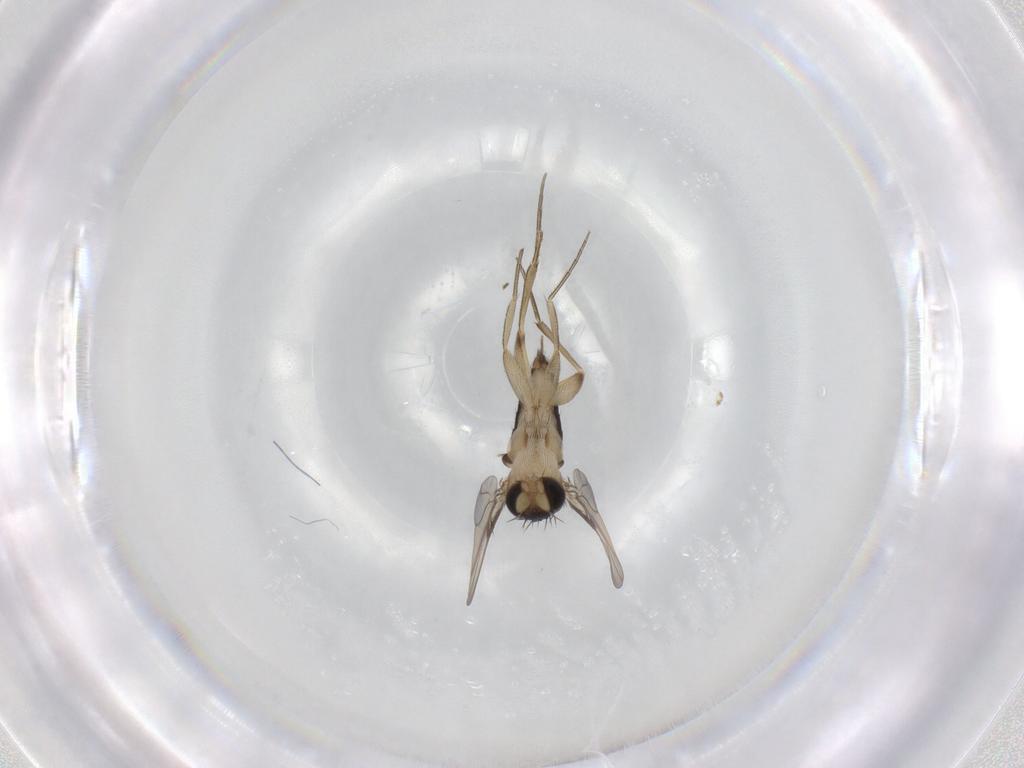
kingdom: Animalia
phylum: Arthropoda
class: Insecta
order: Diptera
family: Phoridae
